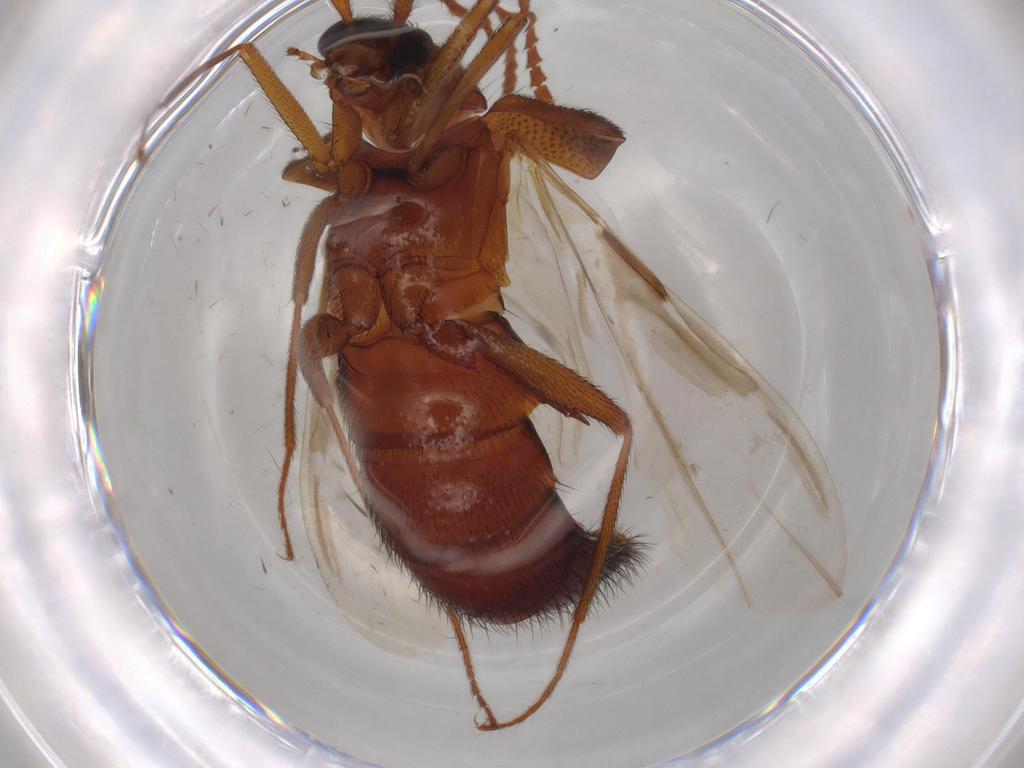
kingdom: Animalia
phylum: Arthropoda
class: Insecta
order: Coleoptera
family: Staphylinidae
